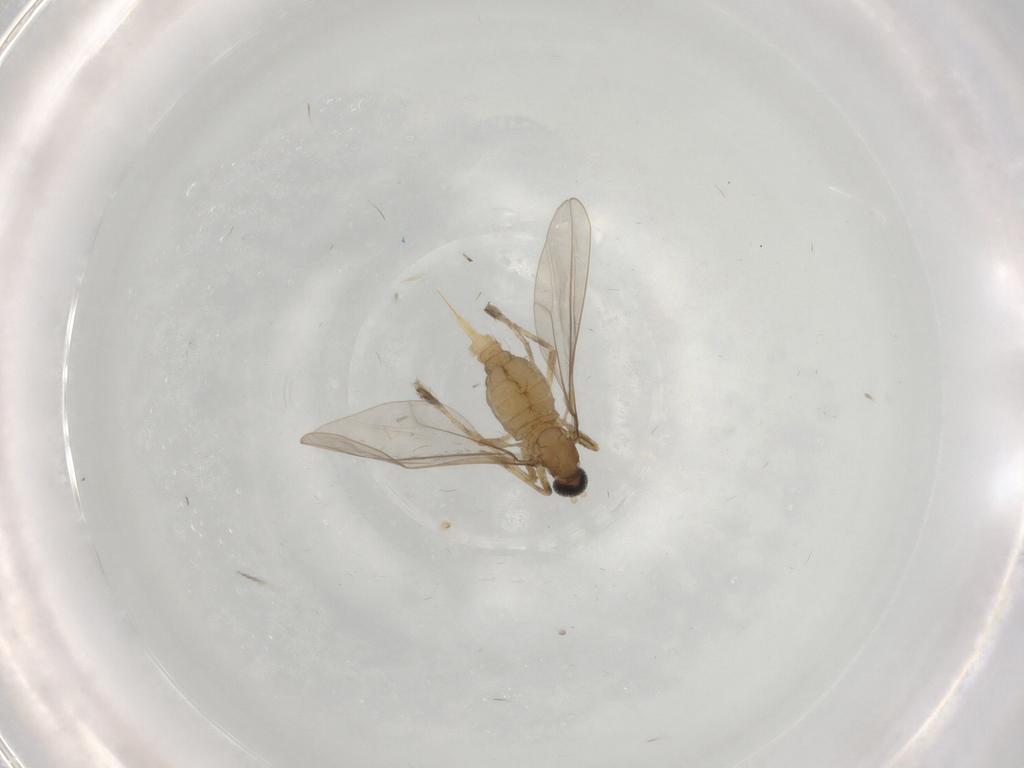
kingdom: Animalia
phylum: Arthropoda
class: Insecta
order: Diptera
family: Cecidomyiidae
